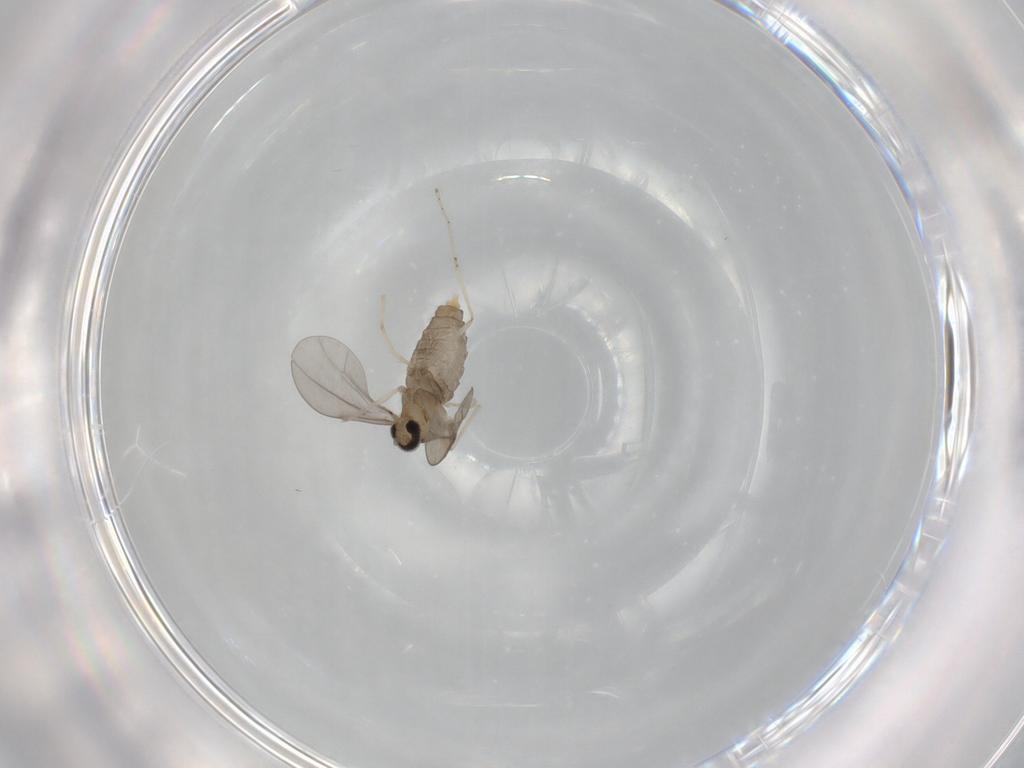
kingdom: Animalia
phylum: Arthropoda
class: Insecta
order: Diptera
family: Cecidomyiidae
